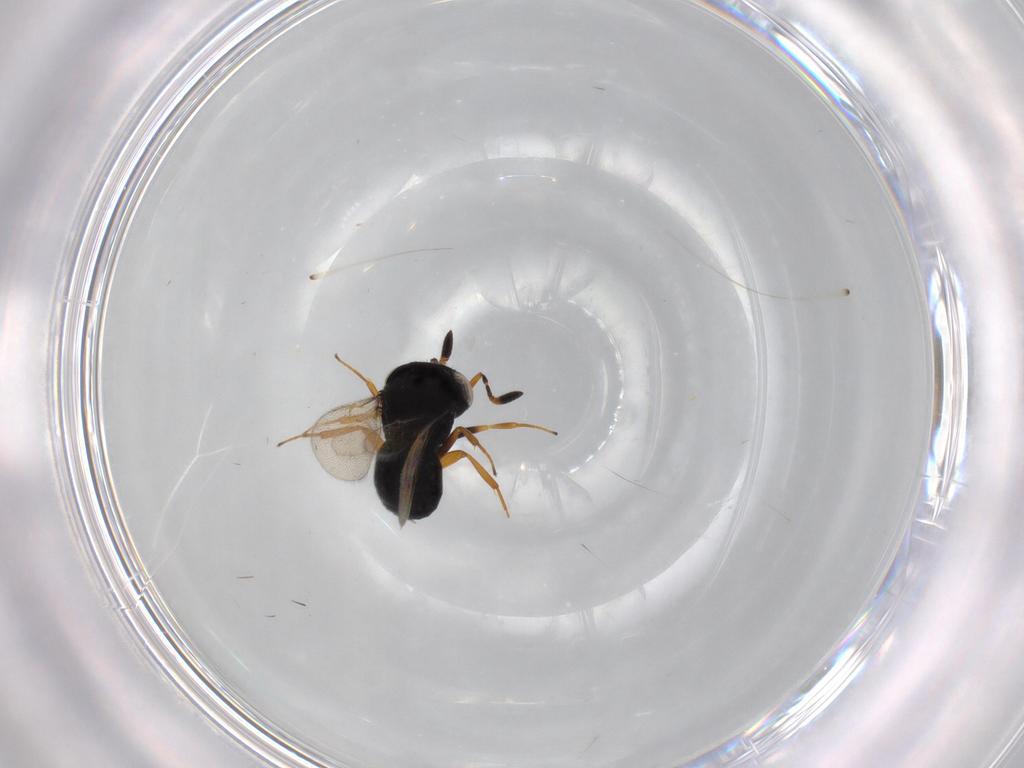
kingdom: Animalia
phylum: Arthropoda
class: Insecta
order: Hymenoptera
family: Scelionidae
